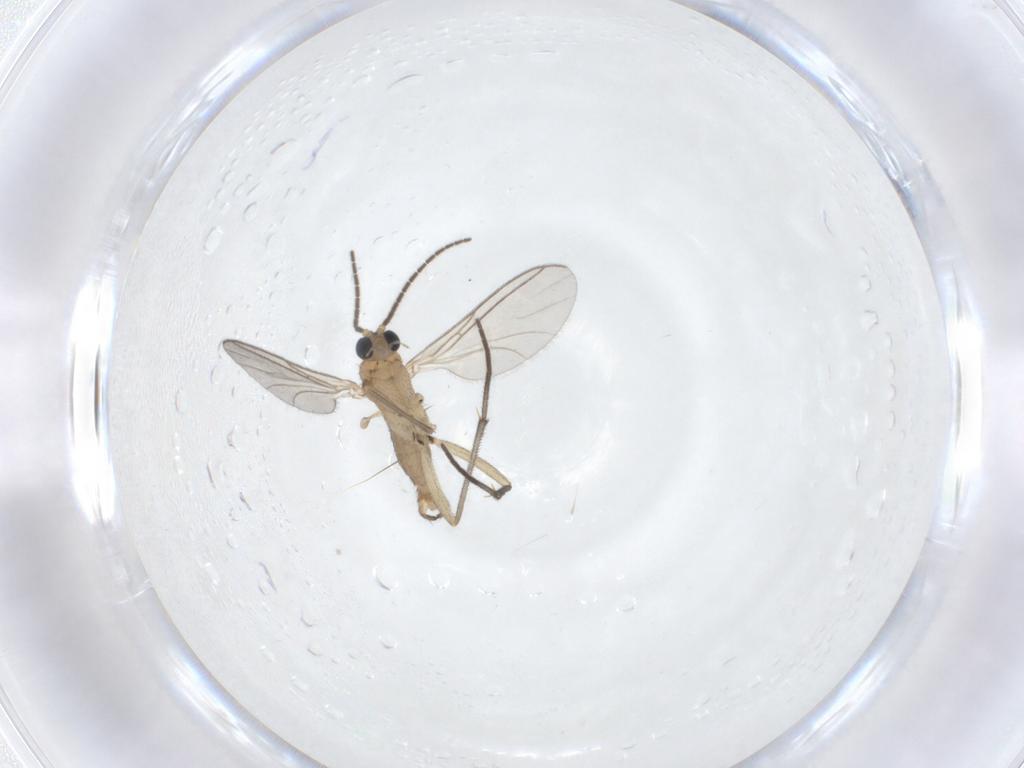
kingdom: Animalia
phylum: Arthropoda
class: Insecta
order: Diptera
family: Sciaridae
